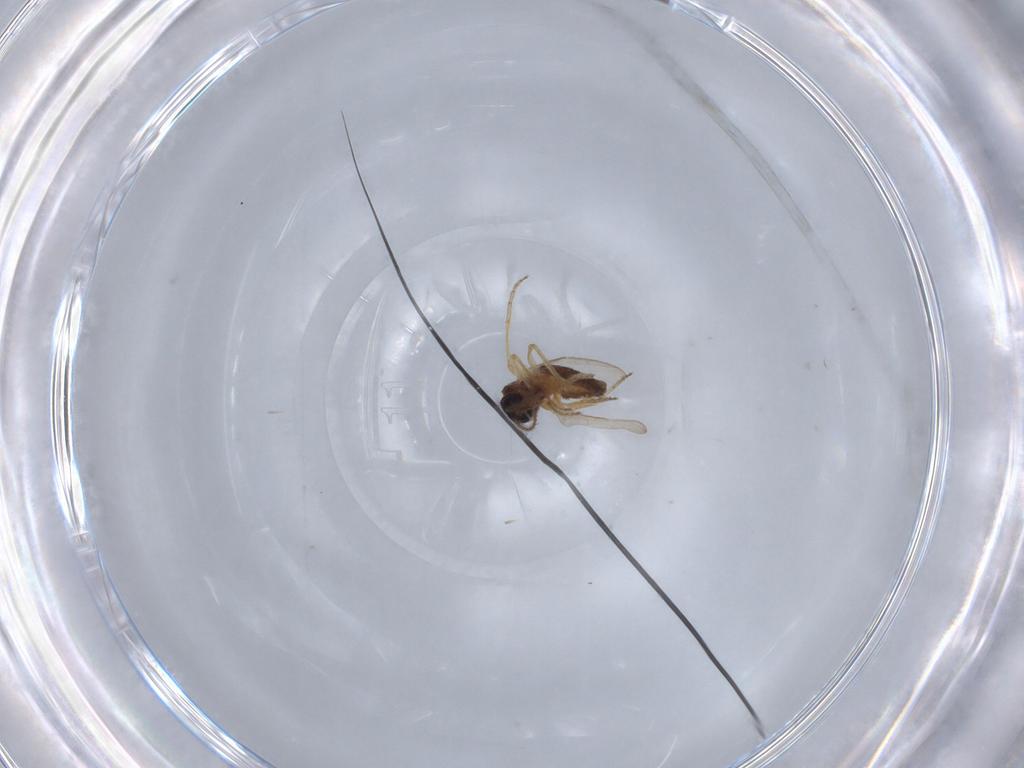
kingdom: Animalia
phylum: Arthropoda
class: Insecta
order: Diptera
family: Ceratopogonidae
